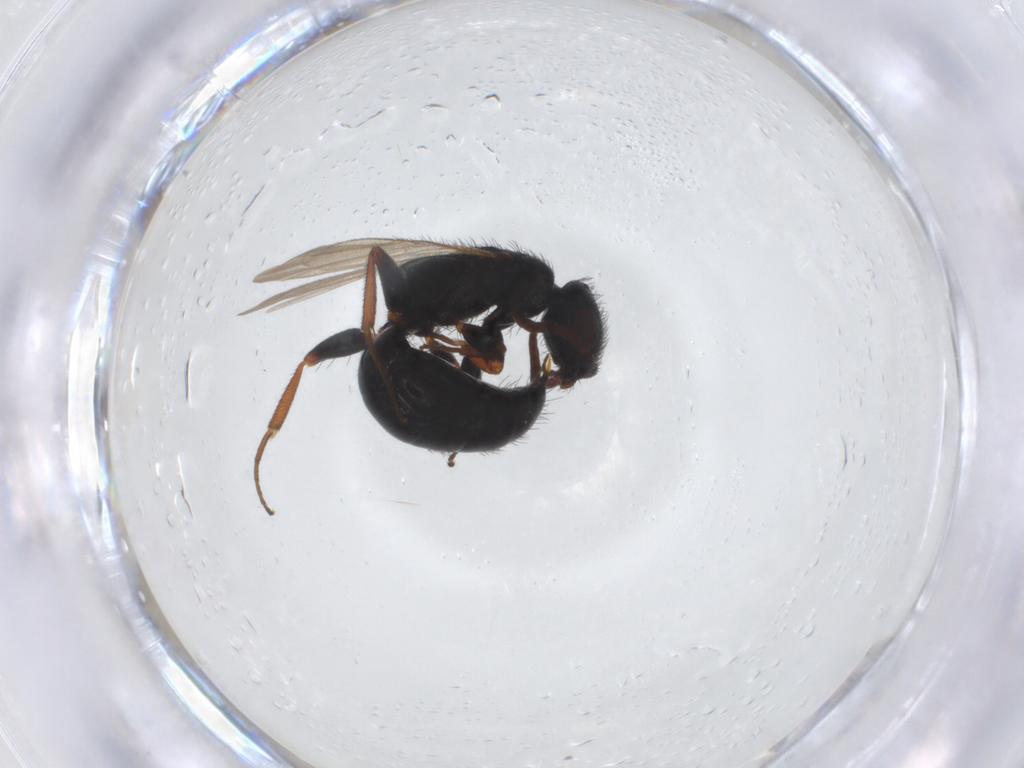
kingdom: Animalia
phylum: Arthropoda
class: Insecta
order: Hymenoptera
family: Bethylidae
